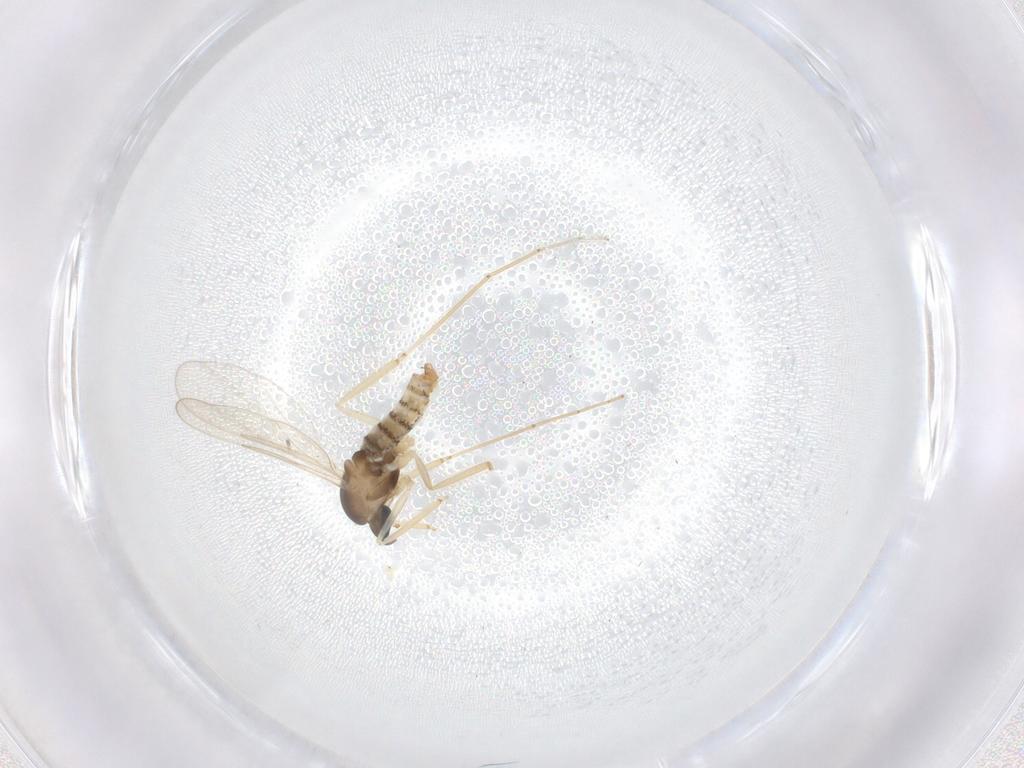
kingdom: Animalia
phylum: Arthropoda
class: Insecta
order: Diptera
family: Cecidomyiidae
